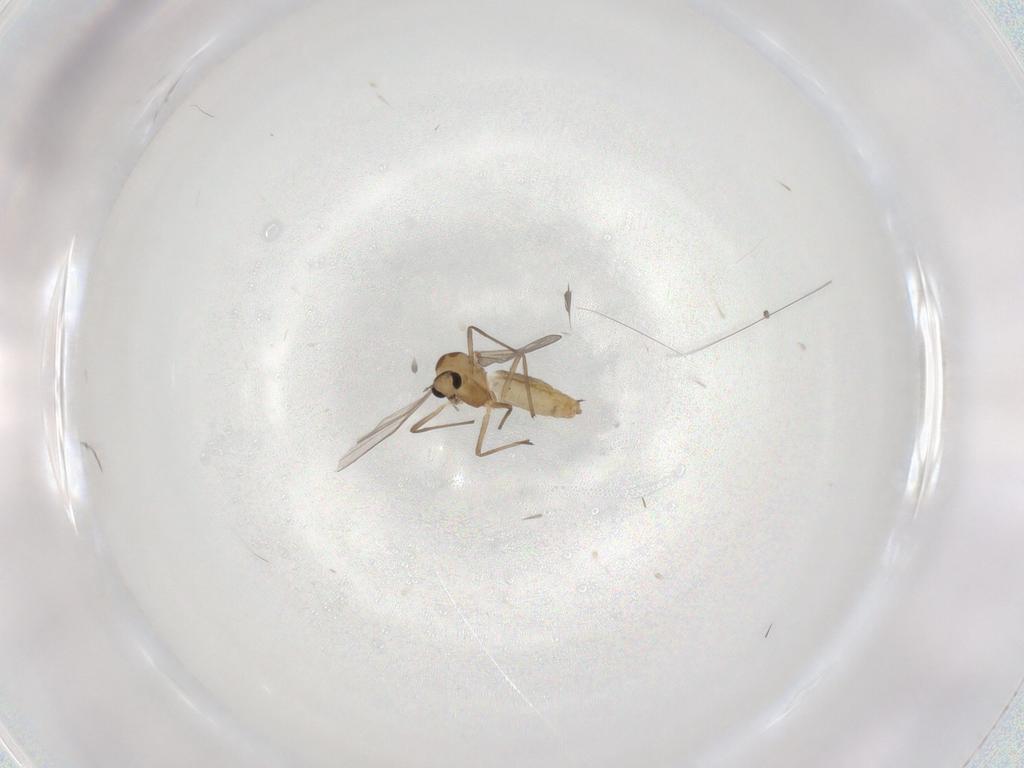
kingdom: Animalia
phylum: Arthropoda
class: Insecta
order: Diptera
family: Chironomidae
